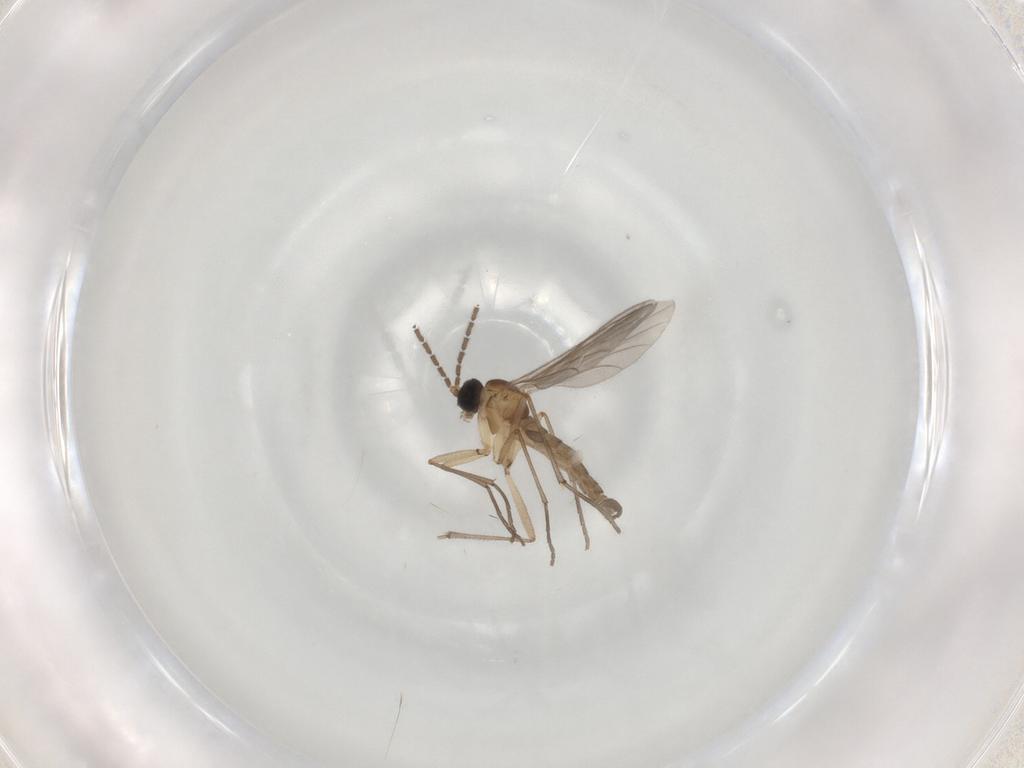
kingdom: Animalia
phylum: Arthropoda
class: Insecta
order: Diptera
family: Sciaridae
